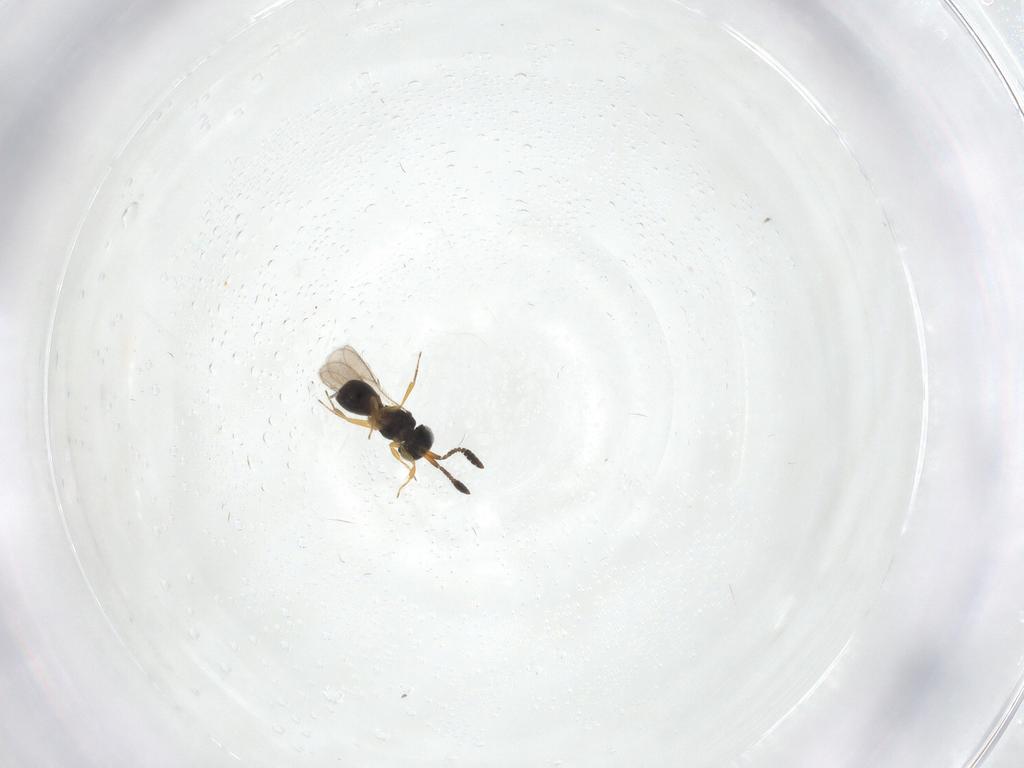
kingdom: Animalia
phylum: Arthropoda
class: Insecta
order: Hymenoptera
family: Scelionidae
